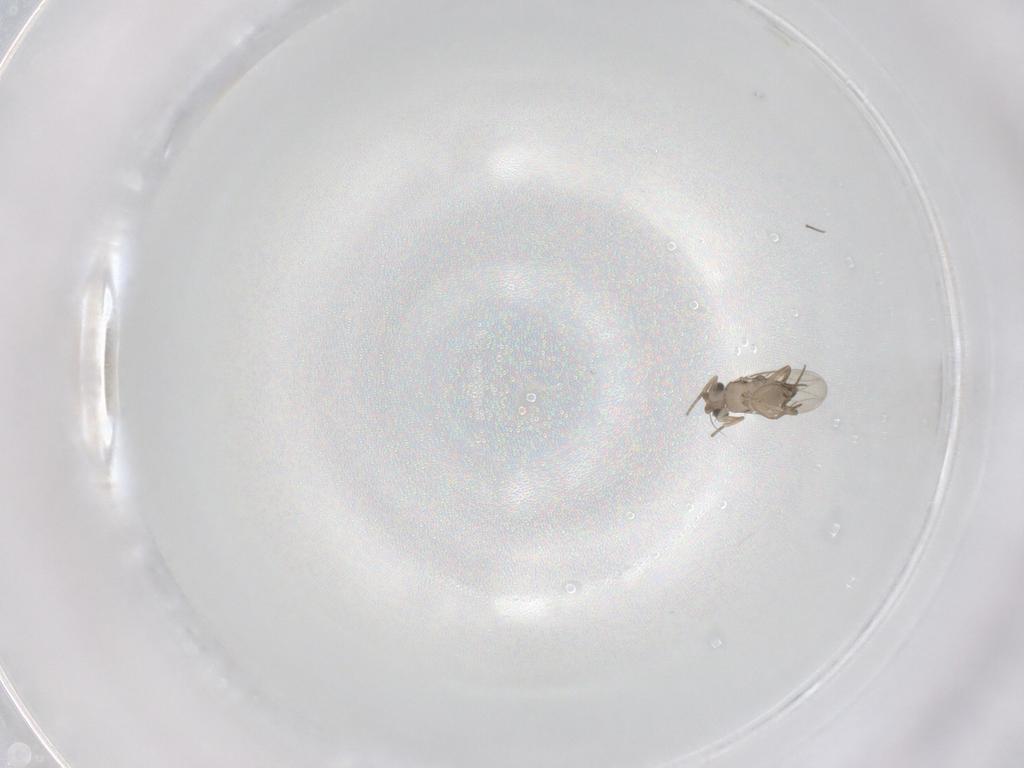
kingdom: Animalia
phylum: Arthropoda
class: Insecta
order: Diptera
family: Phoridae
